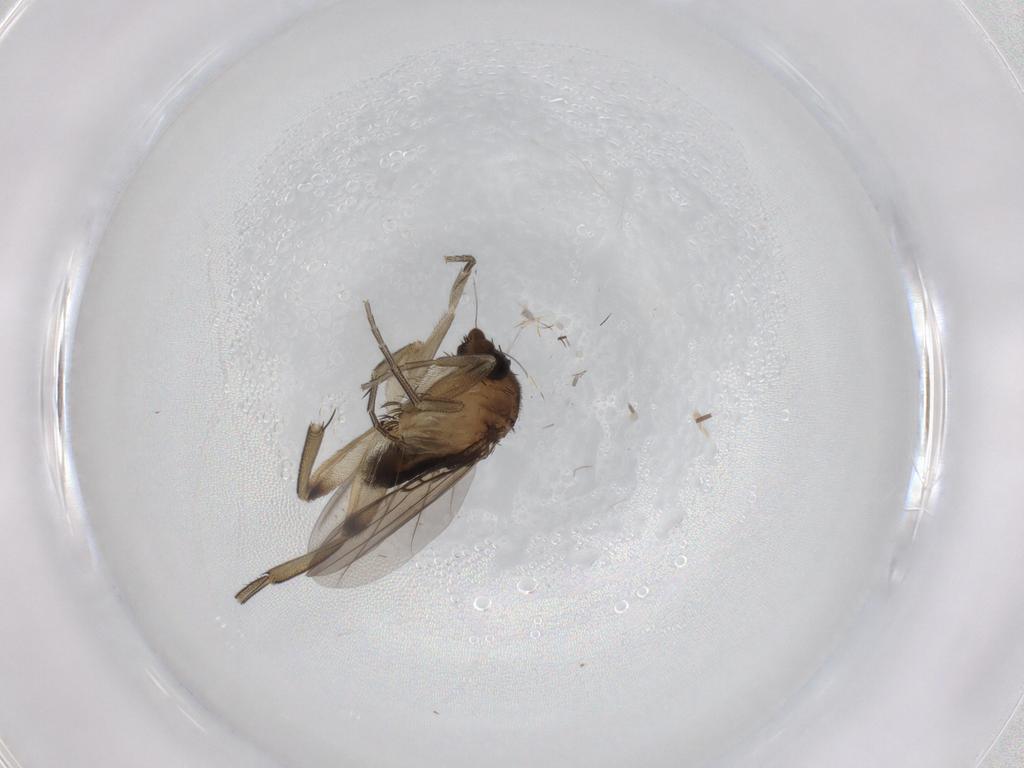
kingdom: Animalia
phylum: Arthropoda
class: Insecta
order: Diptera
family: Phoridae
